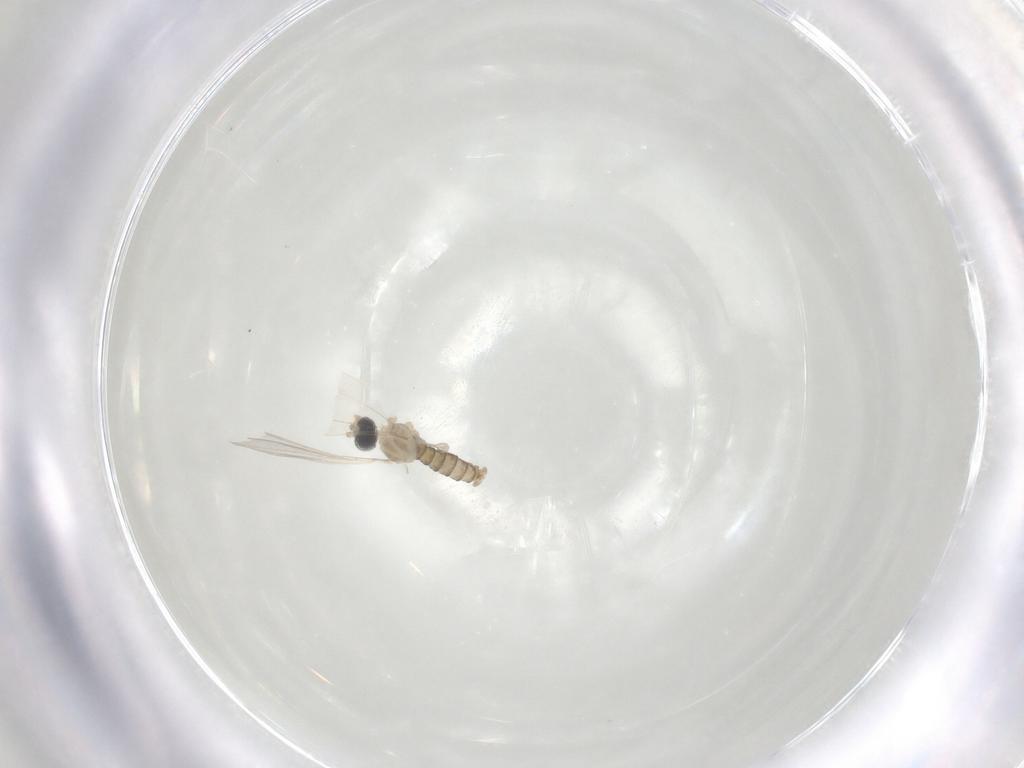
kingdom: Animalia
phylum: Arthropoda
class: Insecta
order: Diptera
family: Cecidomyiidae
